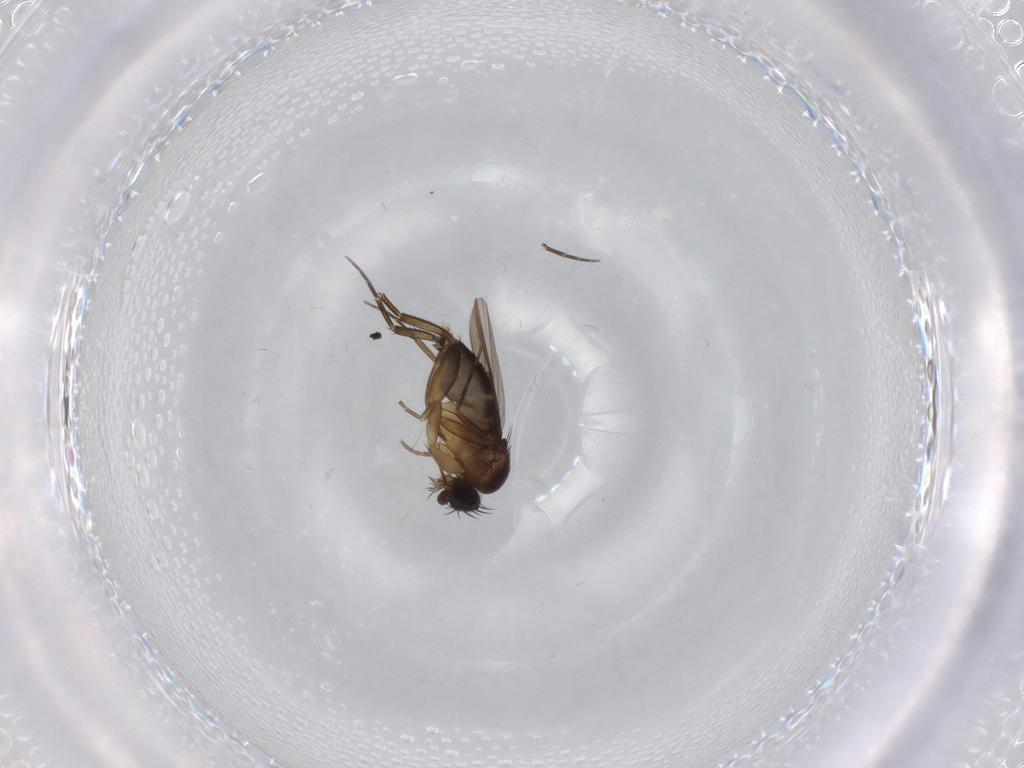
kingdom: Animalia
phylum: Arthropoda
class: Insecta
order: Diptera
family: Phoridae
